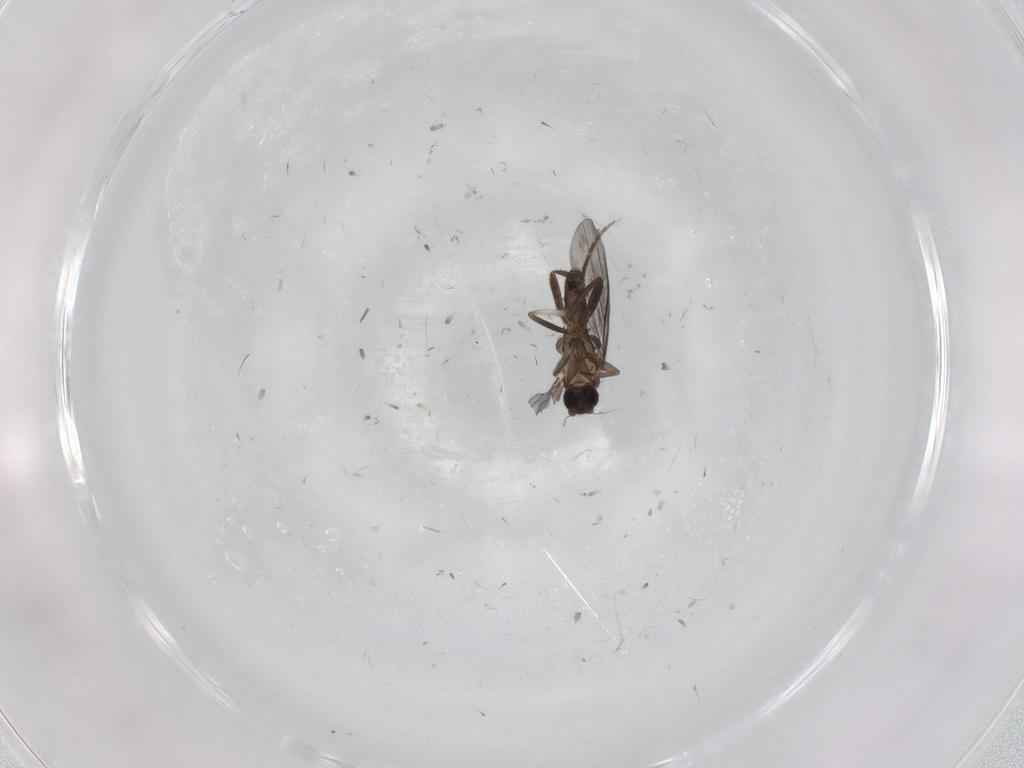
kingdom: Animalia
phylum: Arthropoda
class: Insecta
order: Diptera
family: Phoridae
